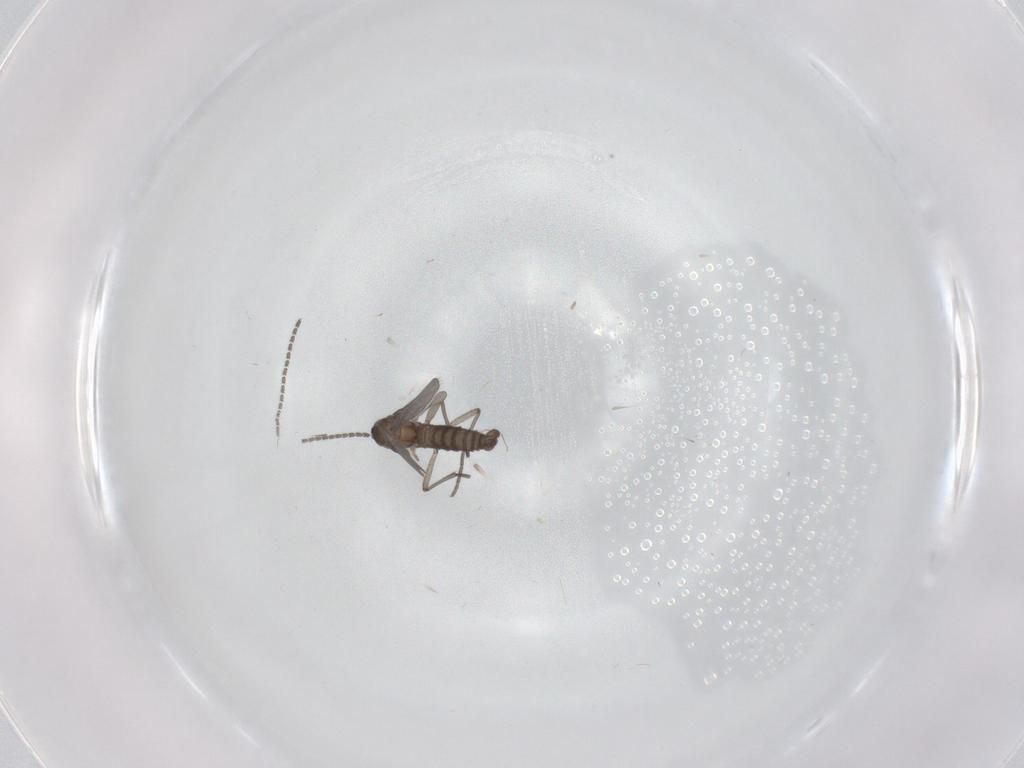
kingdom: Animalia
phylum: Arthropoda
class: Insecta
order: Diptera
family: Sciaridae
